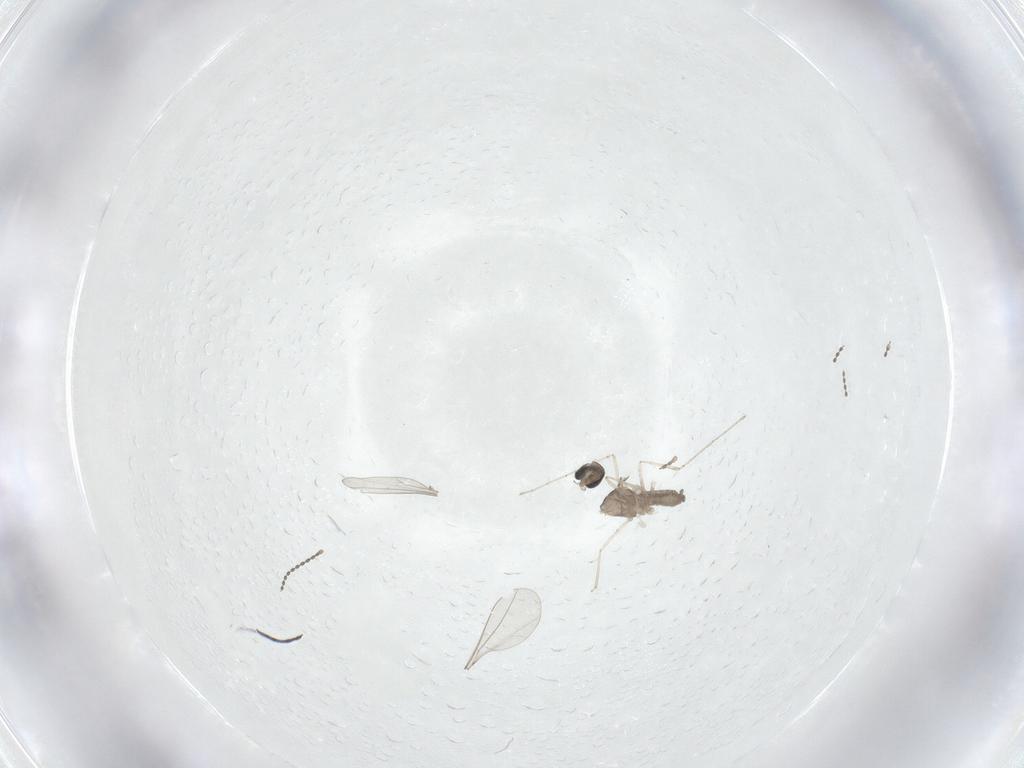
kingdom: Animalia
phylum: Arthropoda
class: Insecta
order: Diptera
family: Cecidomyiidae
